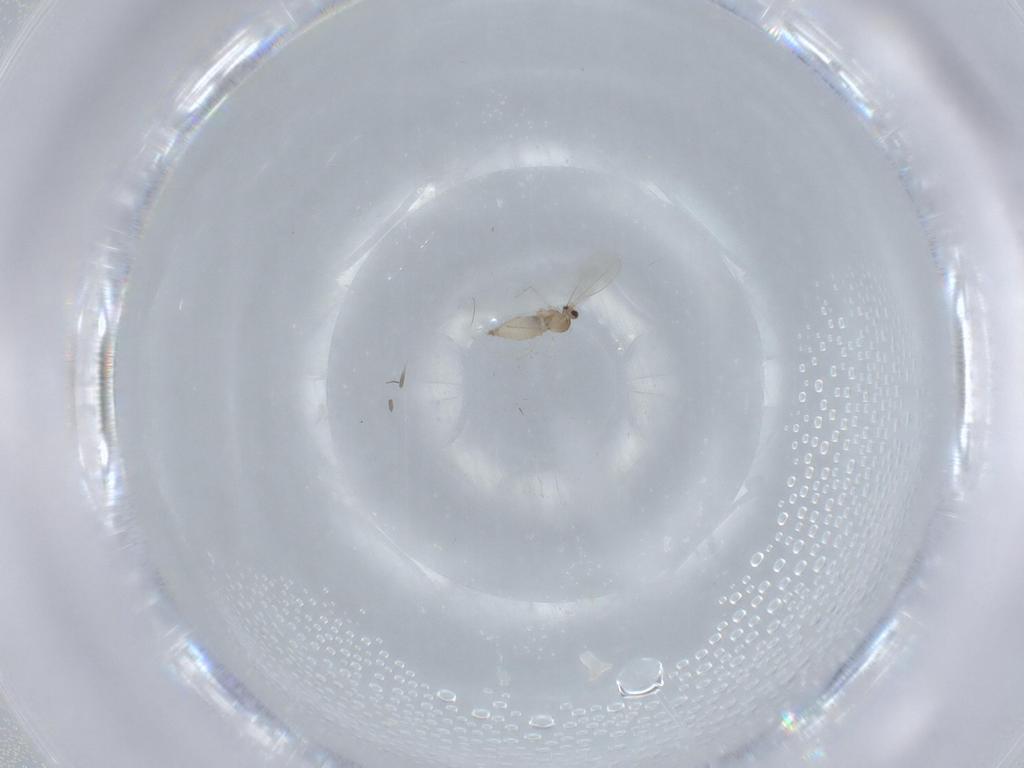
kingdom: Animalia
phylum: Arthropoda
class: Insecta
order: Diptera
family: Cecidomyiidae
